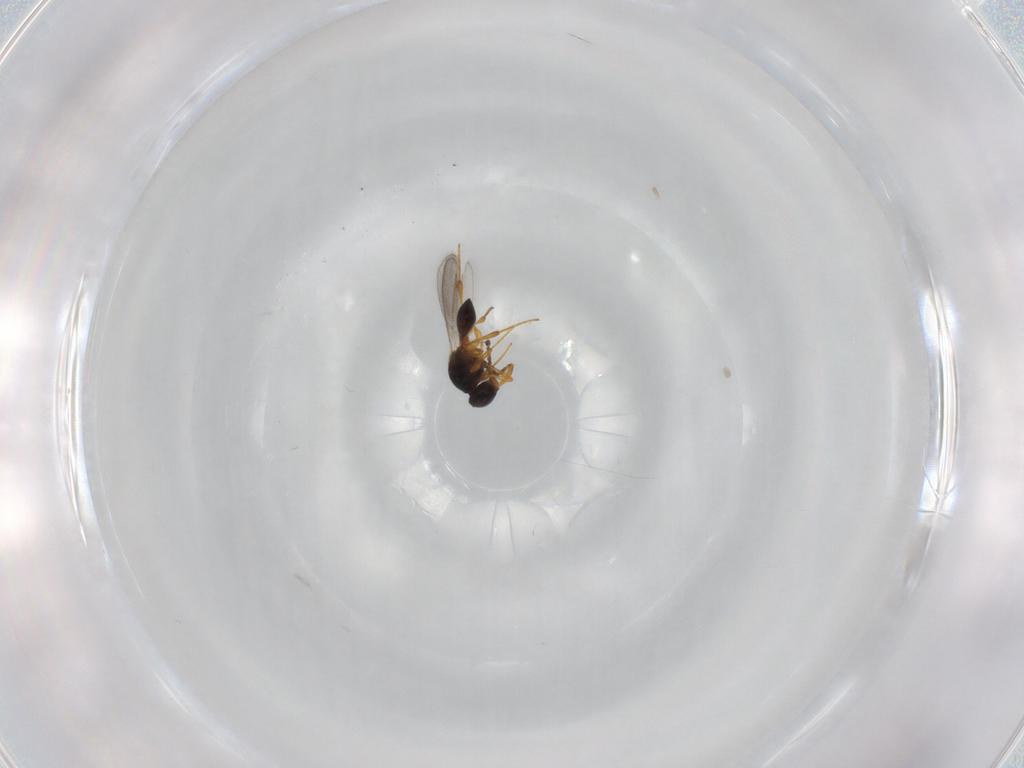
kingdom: Animalia
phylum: Arthropoda
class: Insecta
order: Hymenoptera
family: Platygastridae
